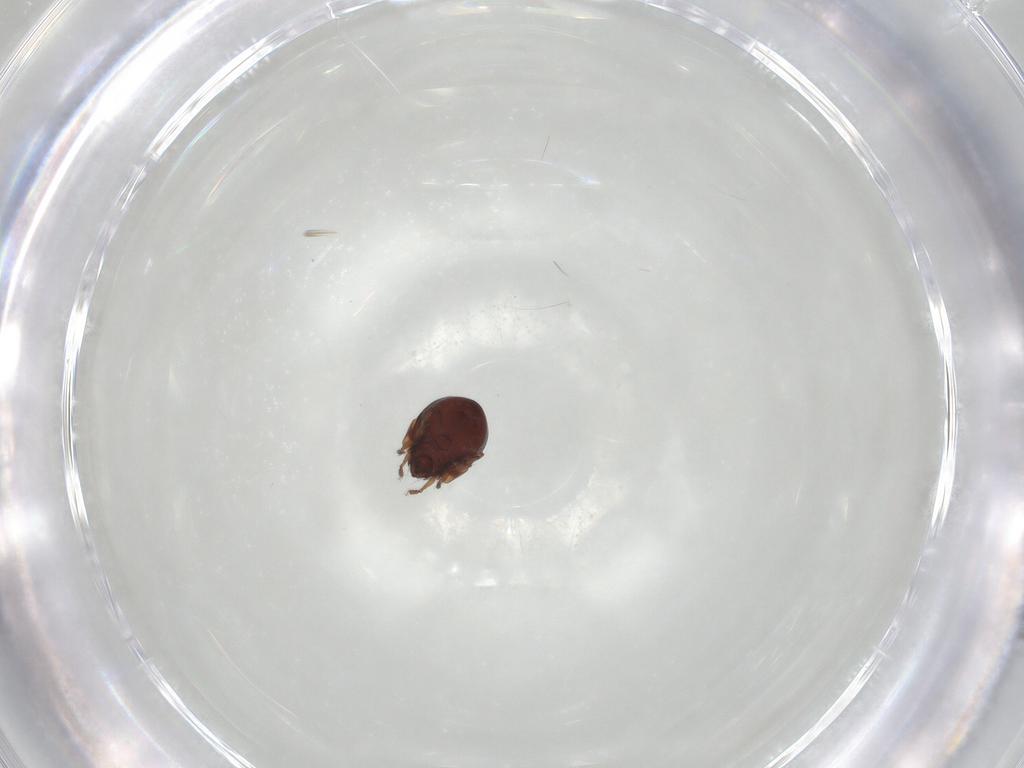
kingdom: Animalia
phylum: Arthropoda
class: Arachnida
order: Sarcoptiformes
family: Humerobatidae
